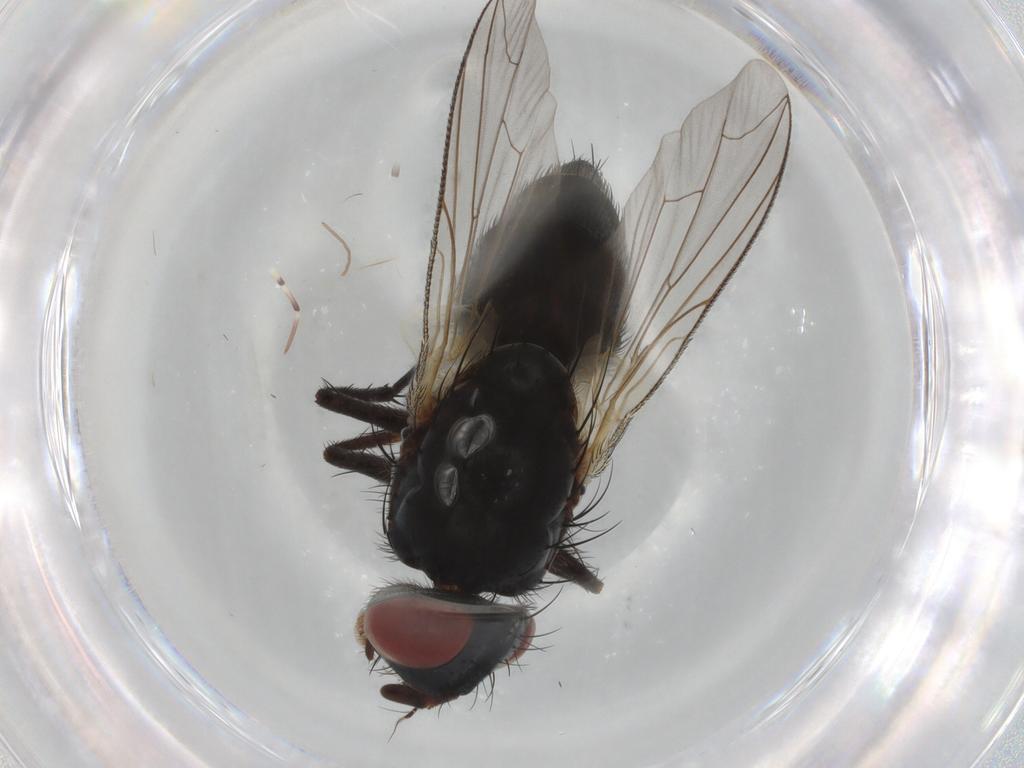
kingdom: Animalia
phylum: Arthropoda
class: Insecta
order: Diptera
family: Sarcophagidae
